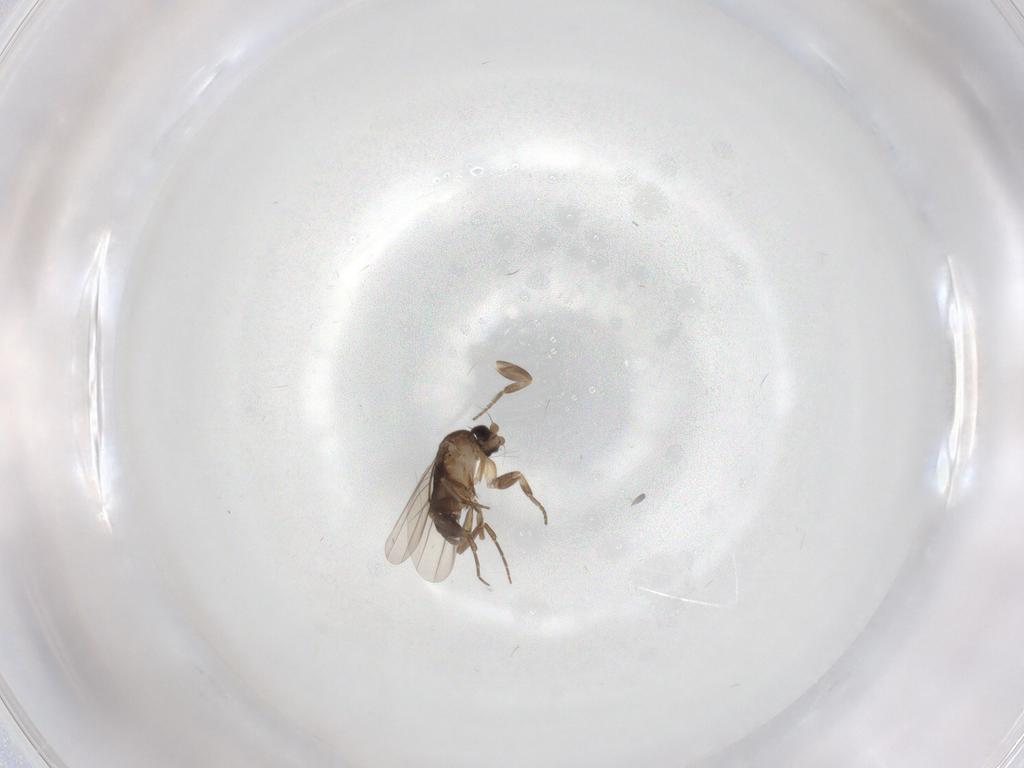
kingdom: Animalia
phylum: Arthropoda
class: Insecta
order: Diptera
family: Phoridae
